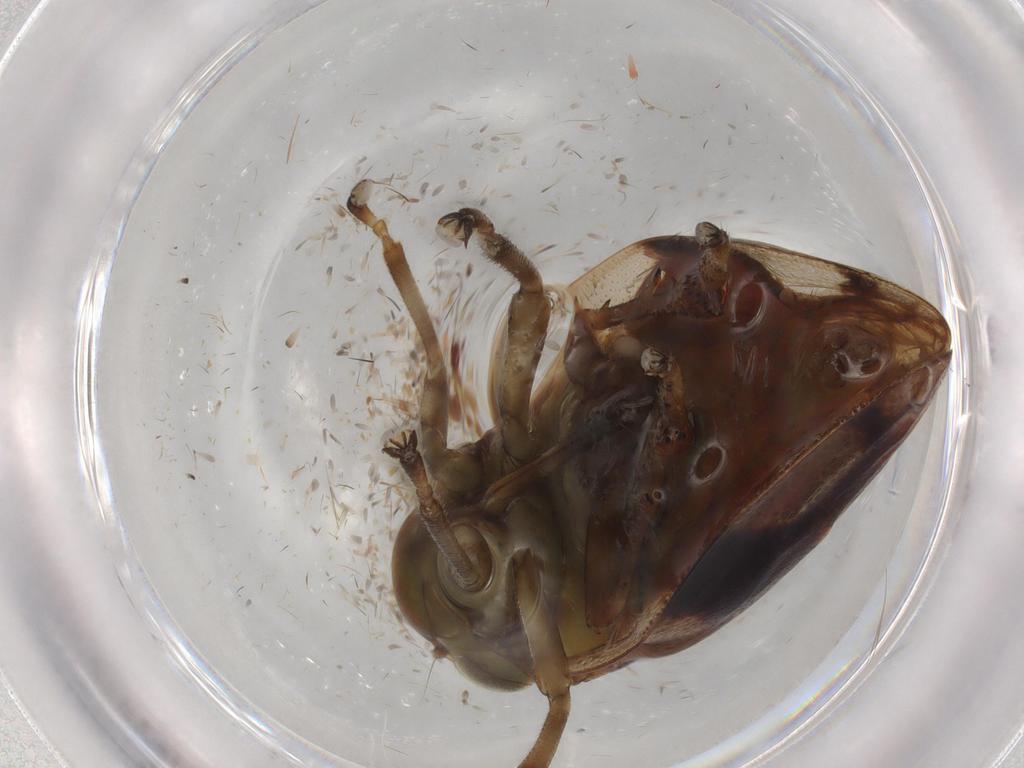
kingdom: Animalia
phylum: Arthropoda
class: Insecta
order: Hemiptera
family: Aphrophoridae
